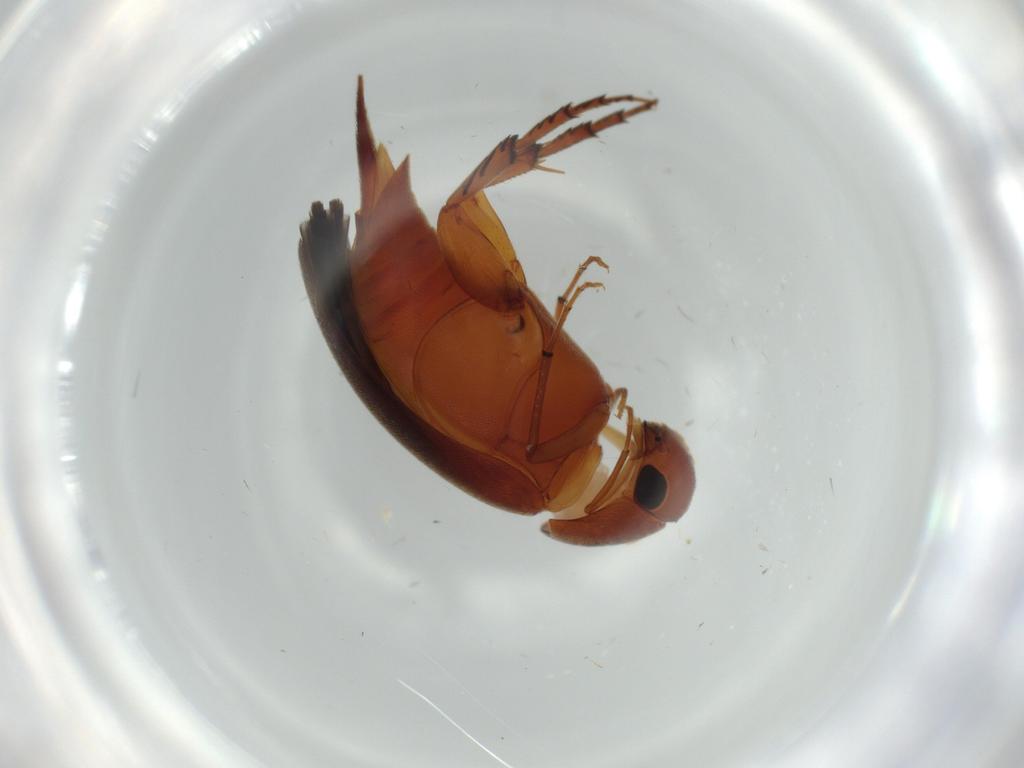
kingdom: Animalia
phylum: Arthropoda
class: Insecta
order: Coleoptera
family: Mordellidae
